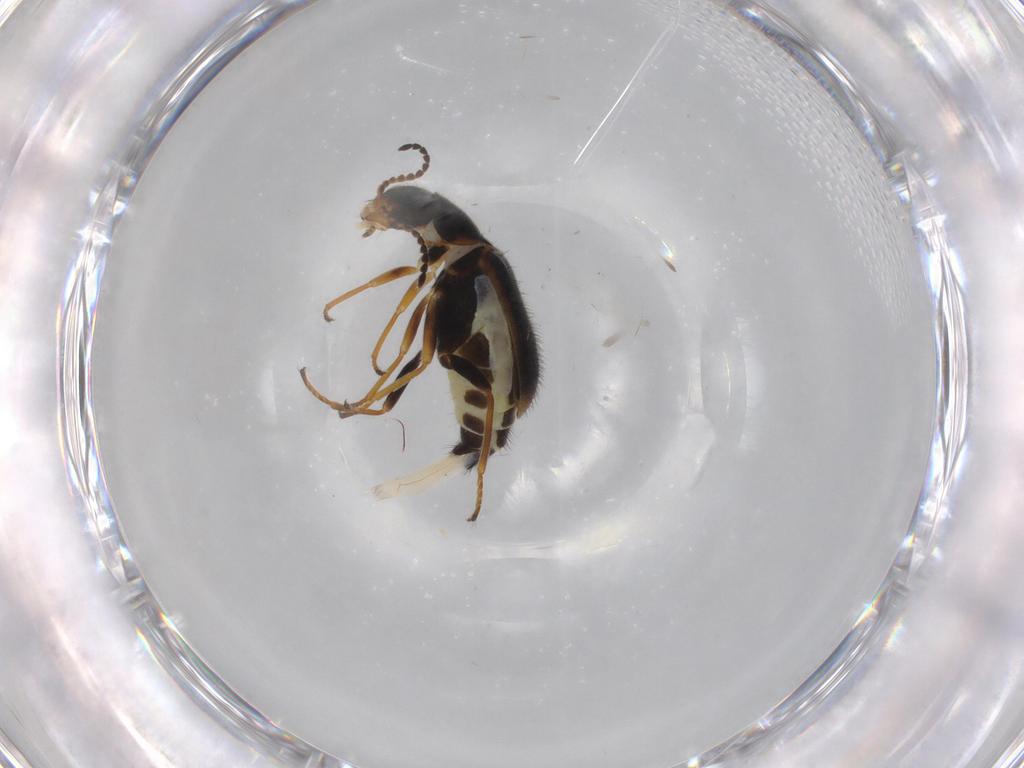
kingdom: Animalia
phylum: Arthropoda
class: Insecta
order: Coleoptera
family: Melyridae
